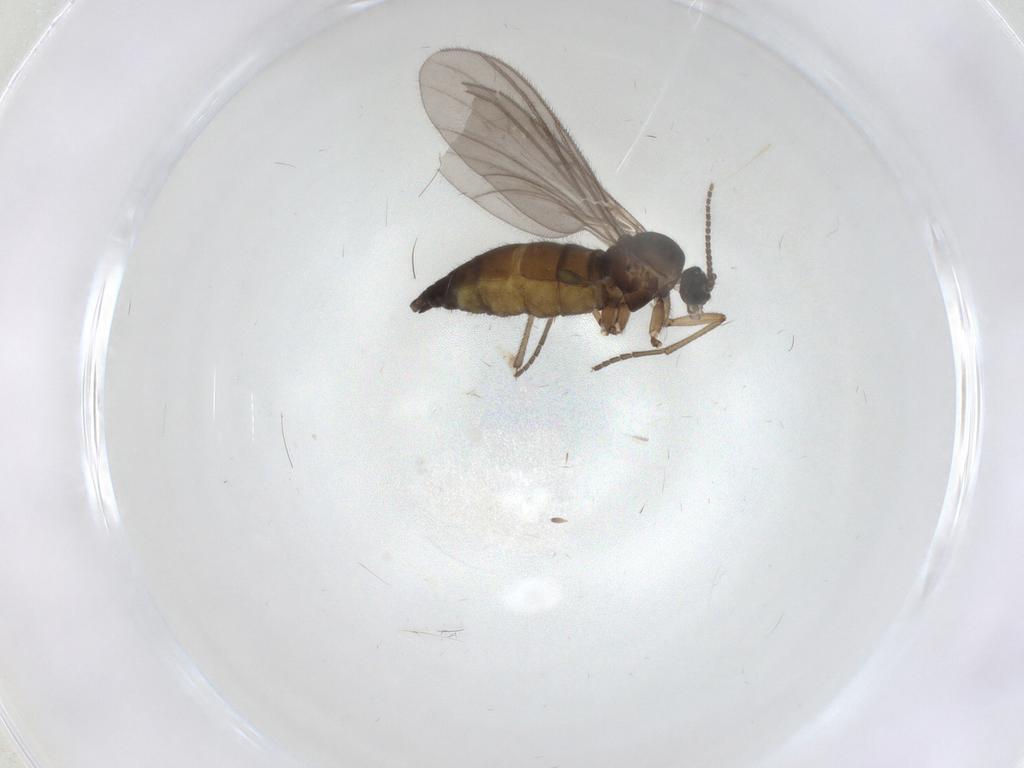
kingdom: Animalia
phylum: Arthropoda
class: Insecta
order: Diptera
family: Sciaridae
